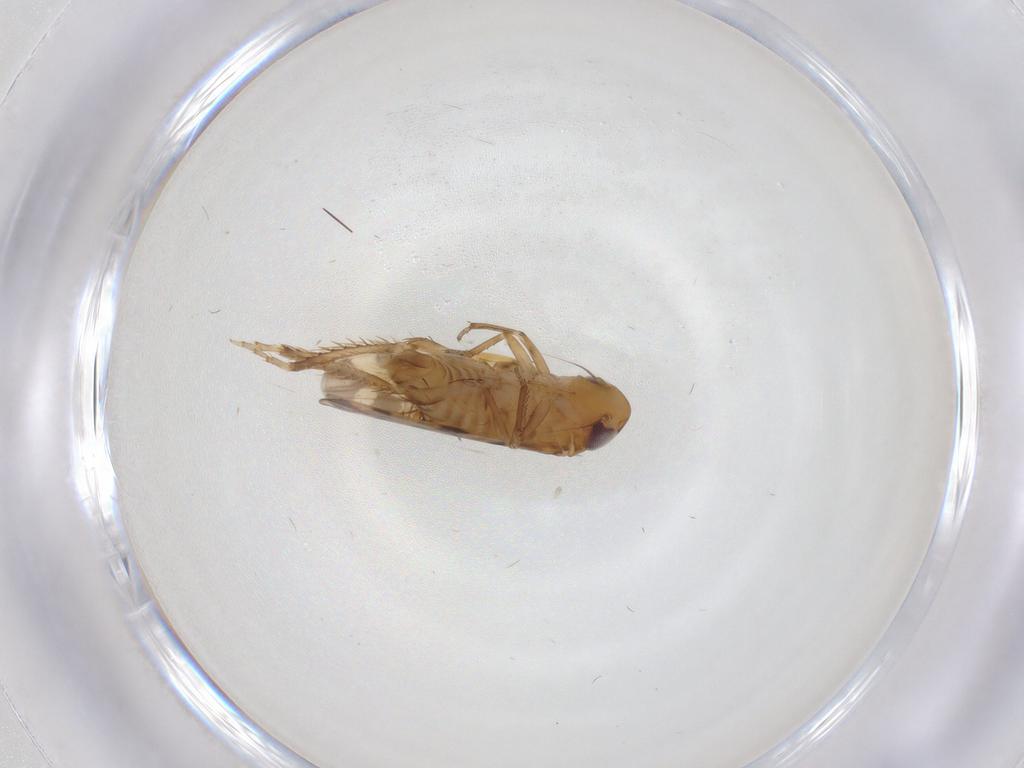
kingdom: Animalia
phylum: Arthropoda
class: Insecta
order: Hemiptera
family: Cicadellidae
